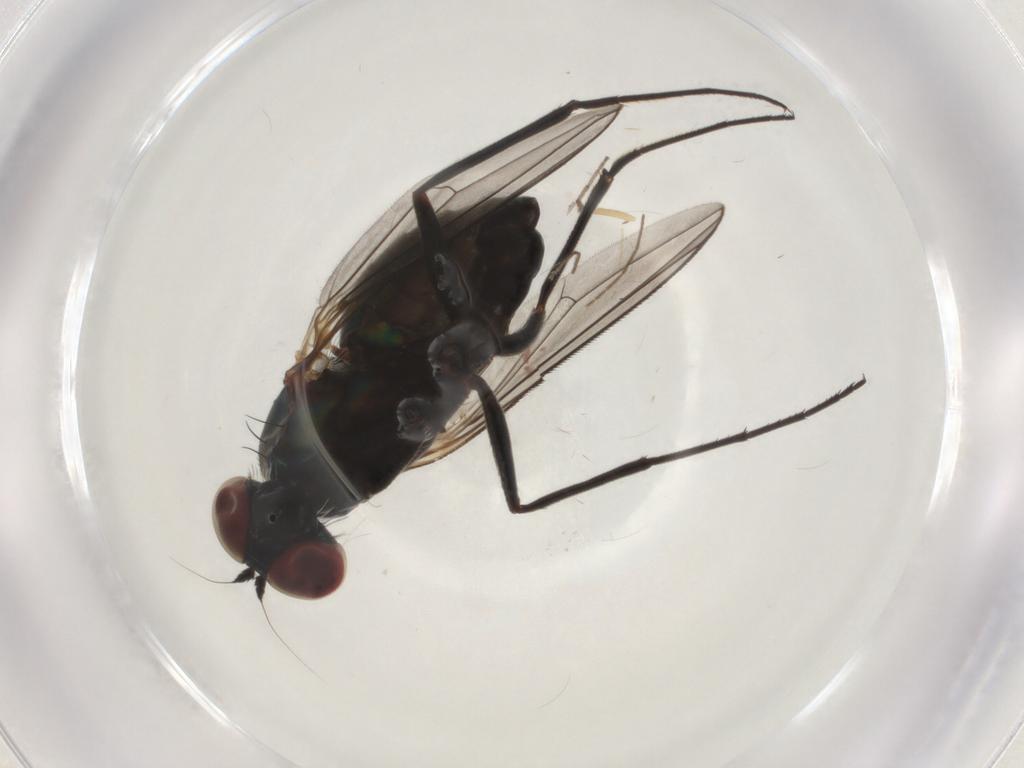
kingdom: Animalia
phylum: Arthropoda
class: Insecta
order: Diptera
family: Dolichopodidae
